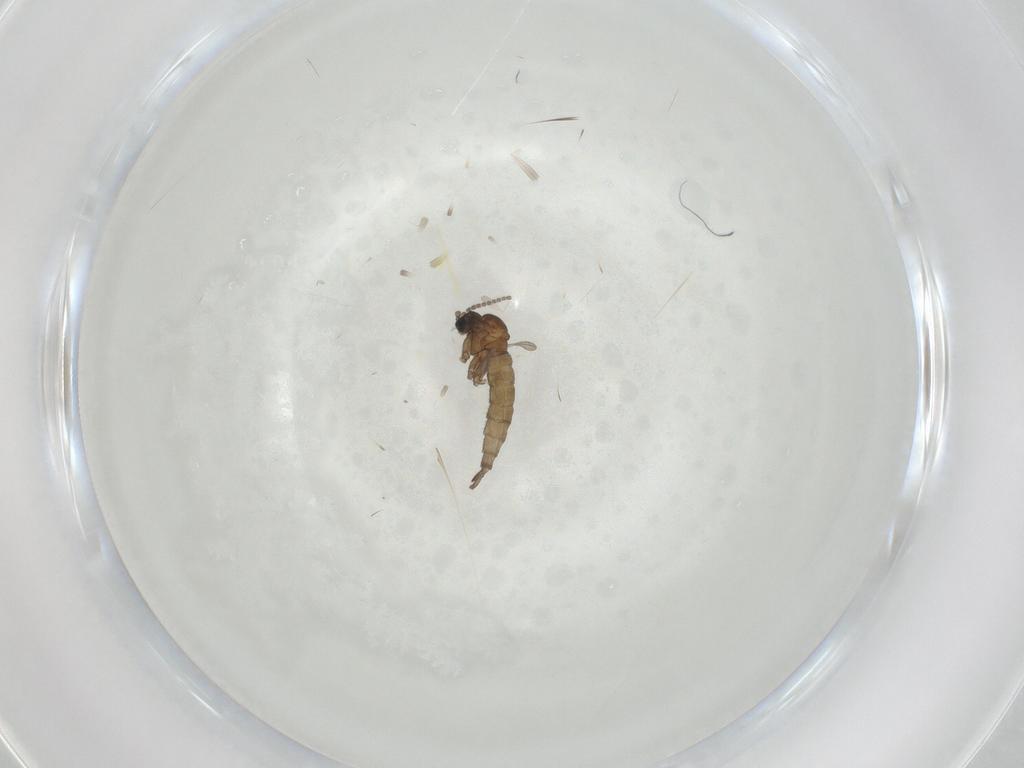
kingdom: Animalia
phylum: Arthropoda
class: Insecta
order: Diptera
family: Sciaridae
